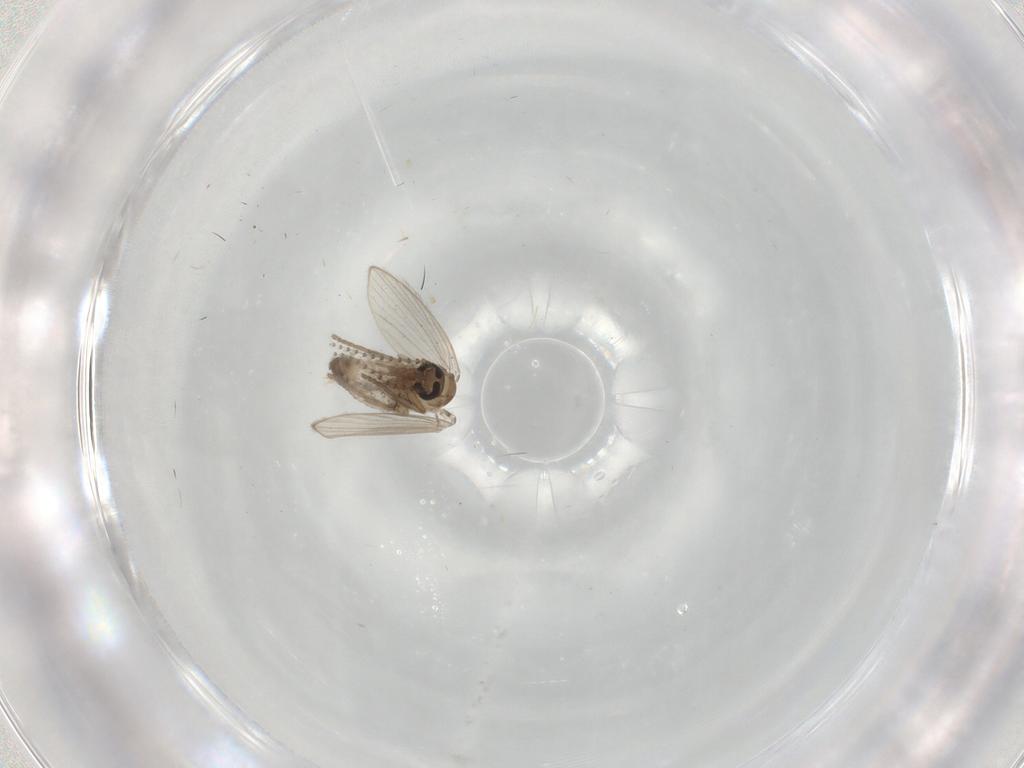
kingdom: Animalia
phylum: Arthropoda
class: Insecta
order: Diptera
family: Psychodidae
